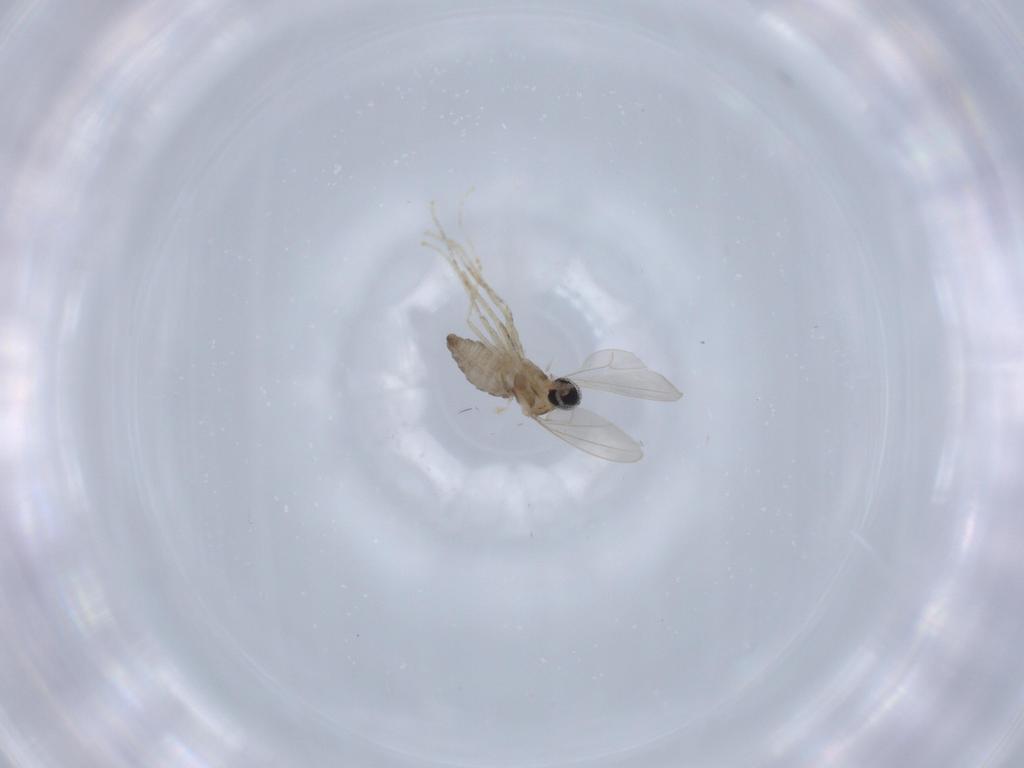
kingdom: Animalia
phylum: Arthropoda
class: Insecta
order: Diptera
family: Cecidomyiidae
